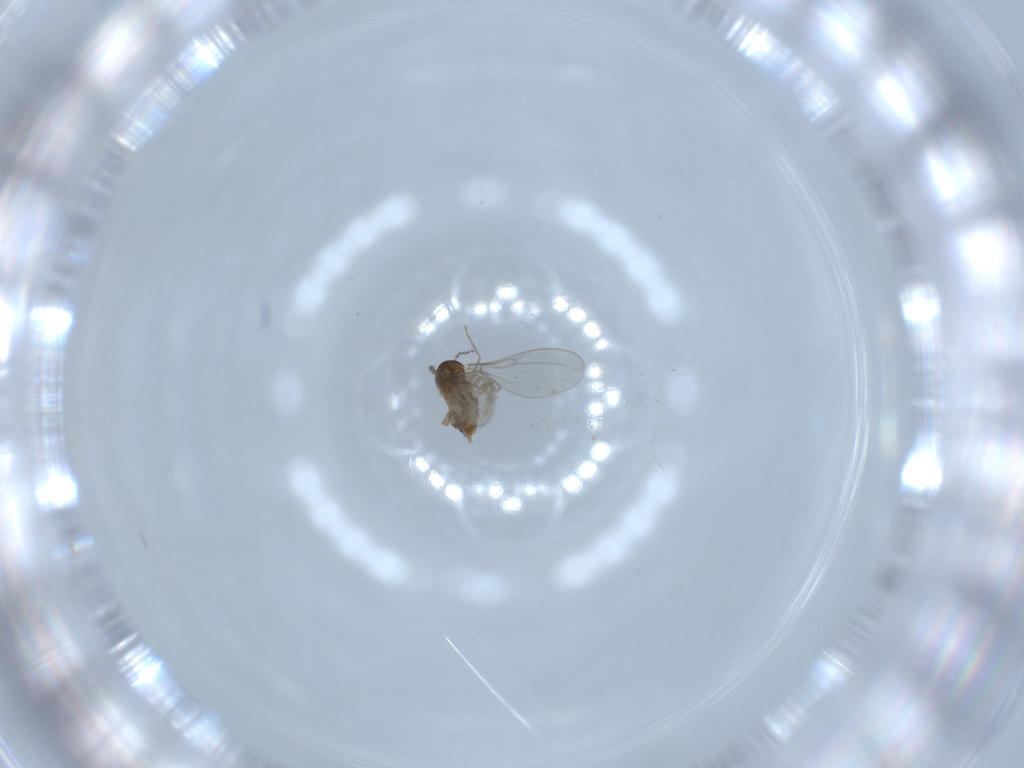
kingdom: Animalia
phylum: Arthropoda
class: Insecta
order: Diptera
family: Cecidomyiidae
